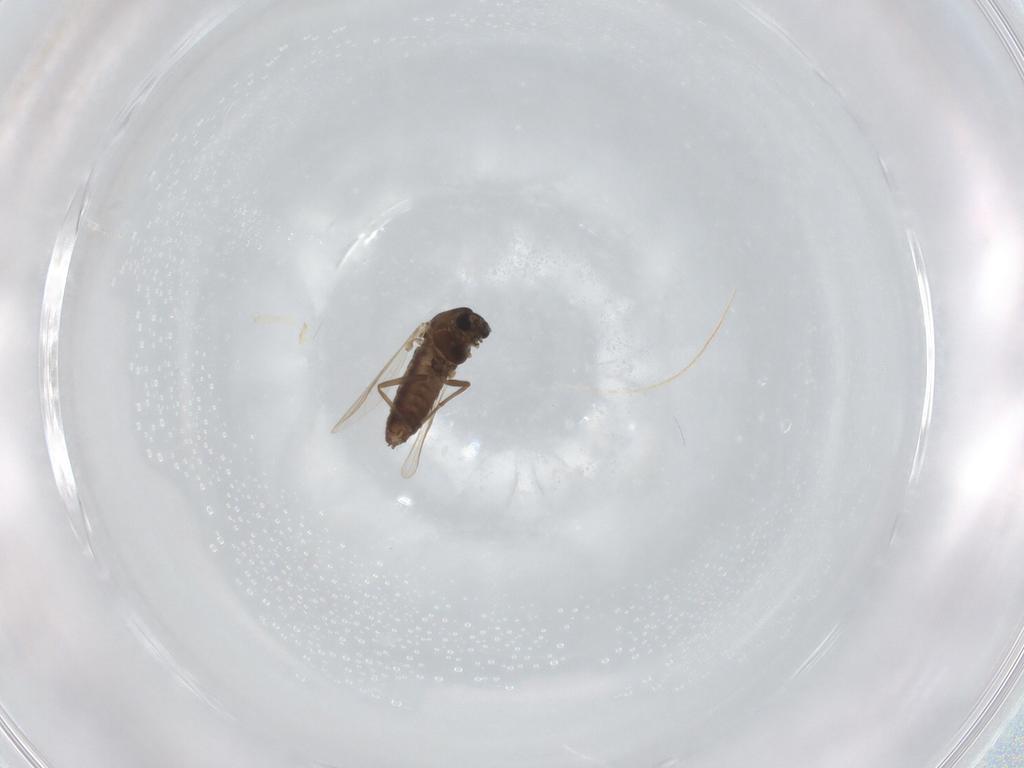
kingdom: Animalia
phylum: Arthropoda
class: Insecta
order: Diptera
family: Chironomidae
